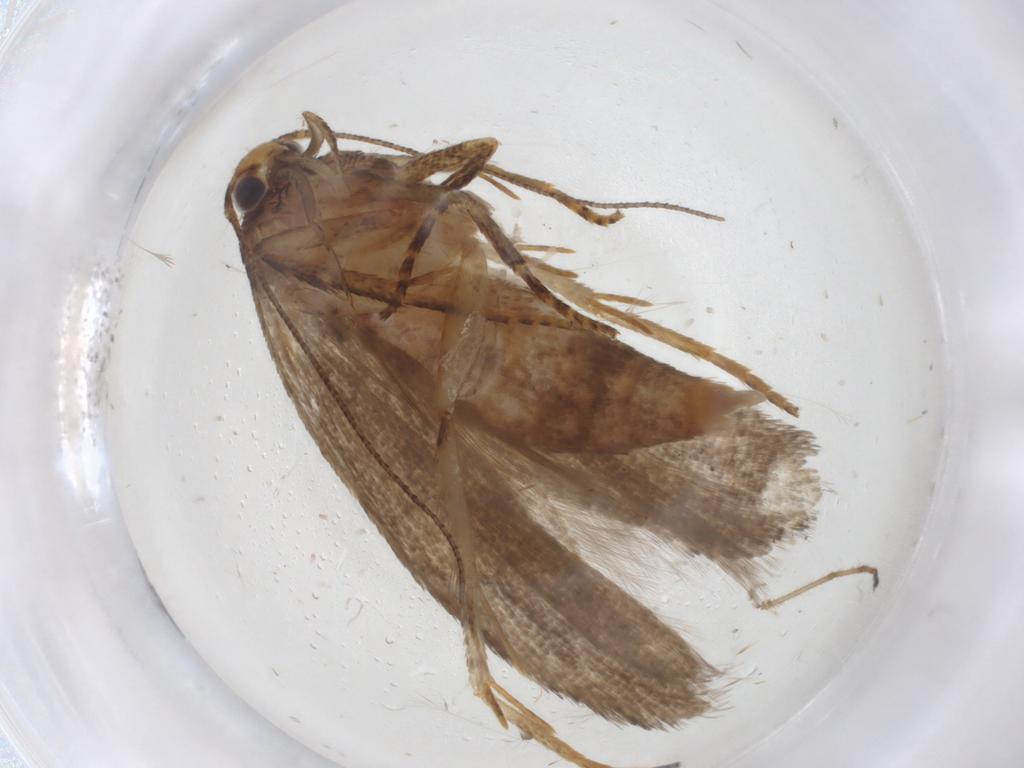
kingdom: Animalia
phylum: Arthropoda
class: Insecta
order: Lepidoptera
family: Gelechiidae
